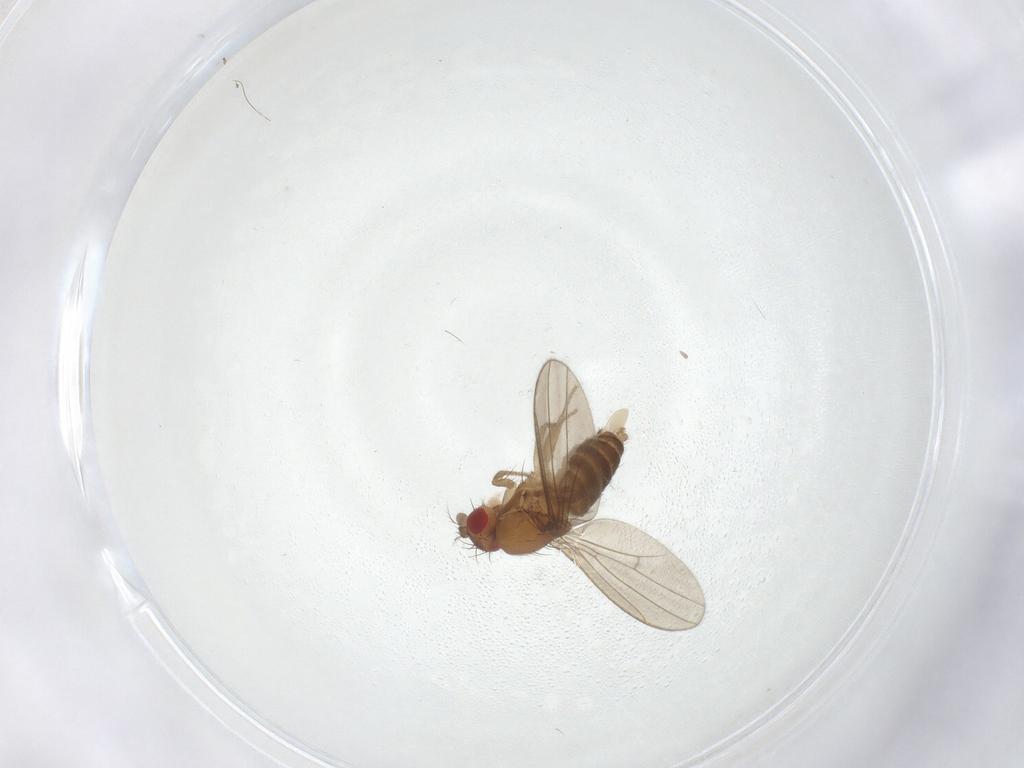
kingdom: Animalia
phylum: Arthropoda
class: Insecta
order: Diptera
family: Drosophilidae
